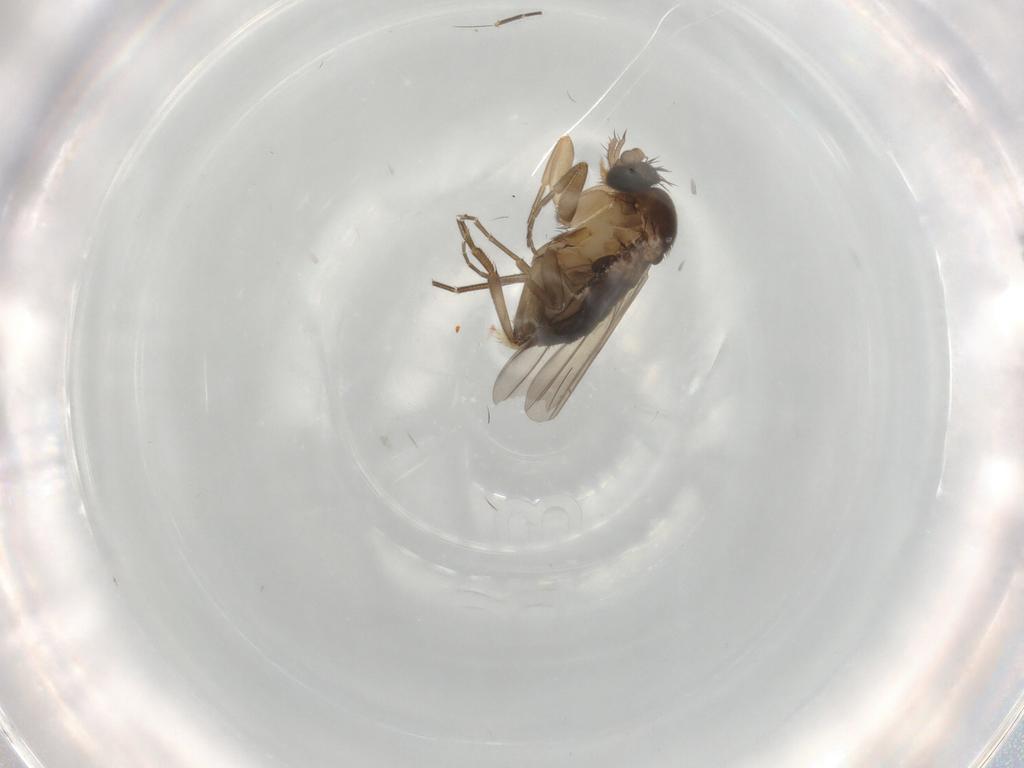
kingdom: Animalia
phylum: Arthropoda
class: Insecta
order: Diptera
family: Phoridae
